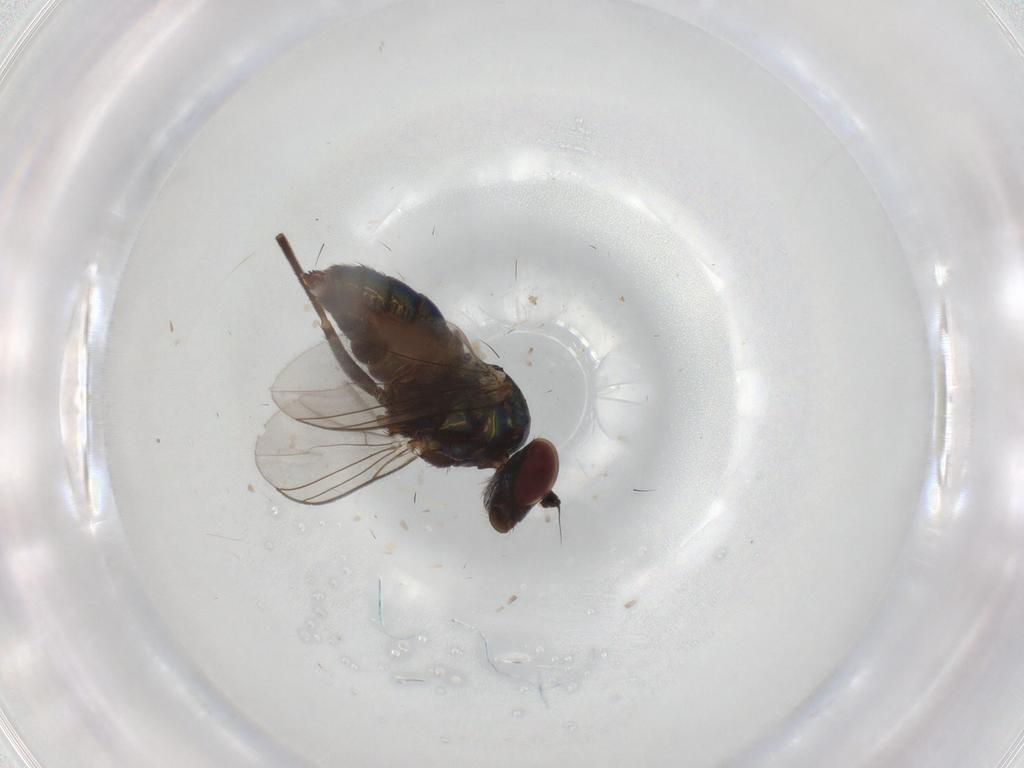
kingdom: Animalia
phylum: Arthropoda
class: Insecta
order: Diptera
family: Dolichopodidae
